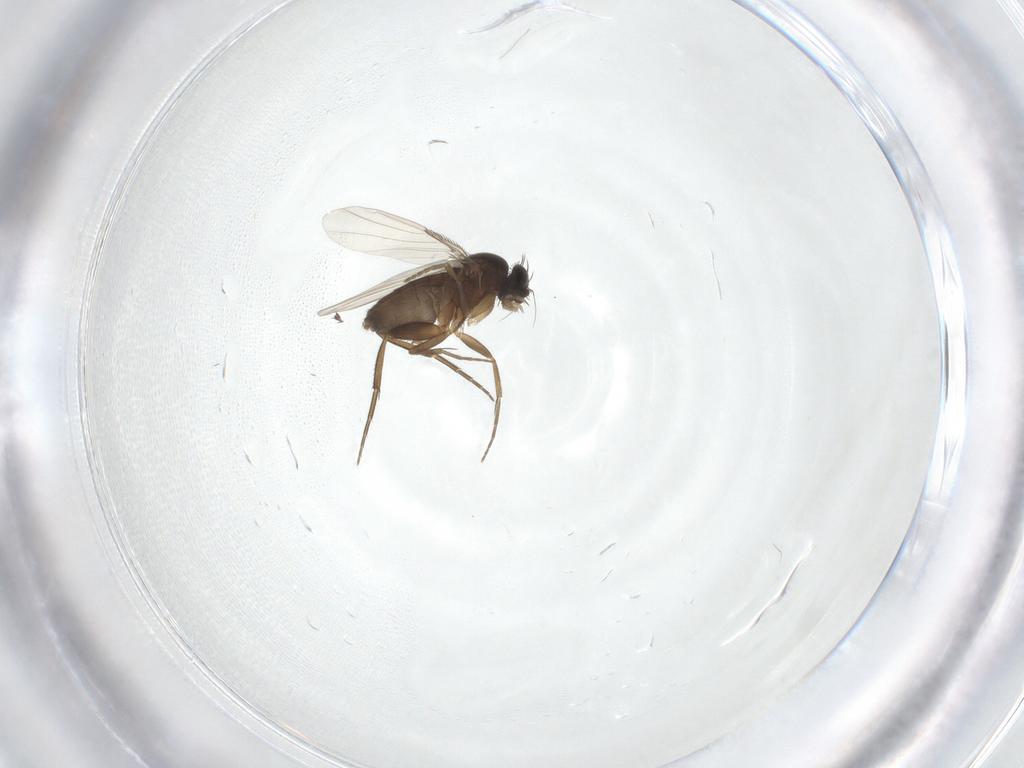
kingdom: Animalia
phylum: Arthropoda
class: Insecta
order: Diptera
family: Phoridae
